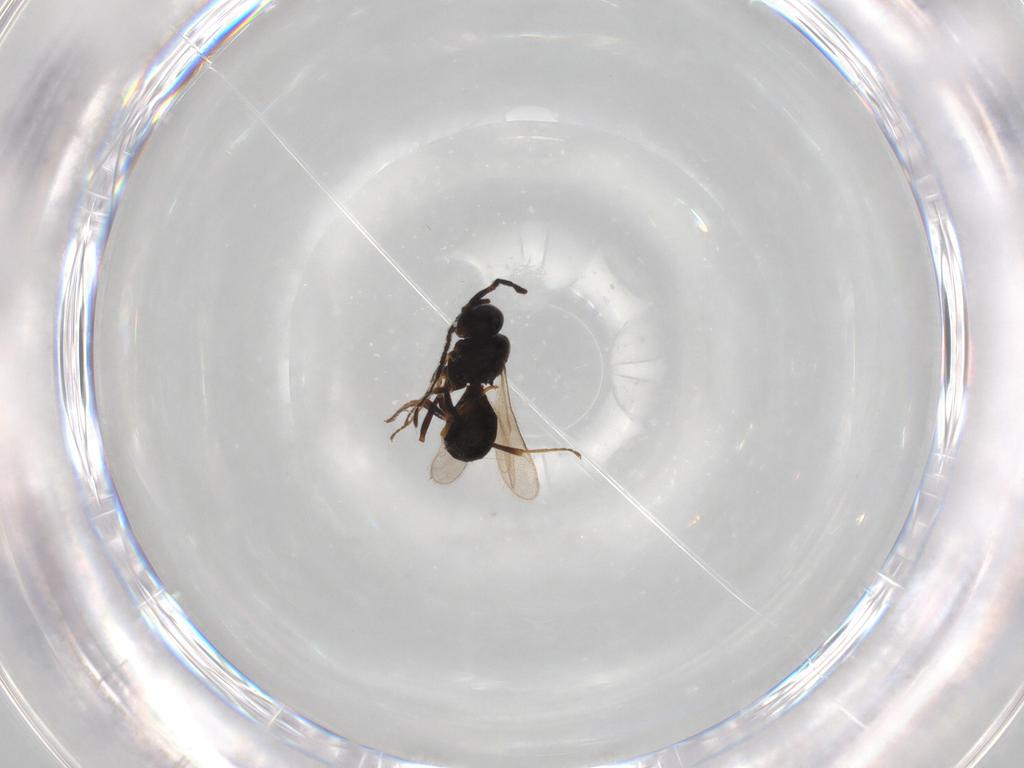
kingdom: Animalia
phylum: Arthropoda
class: Insecta
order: Hymenoptera
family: Scelionidae
